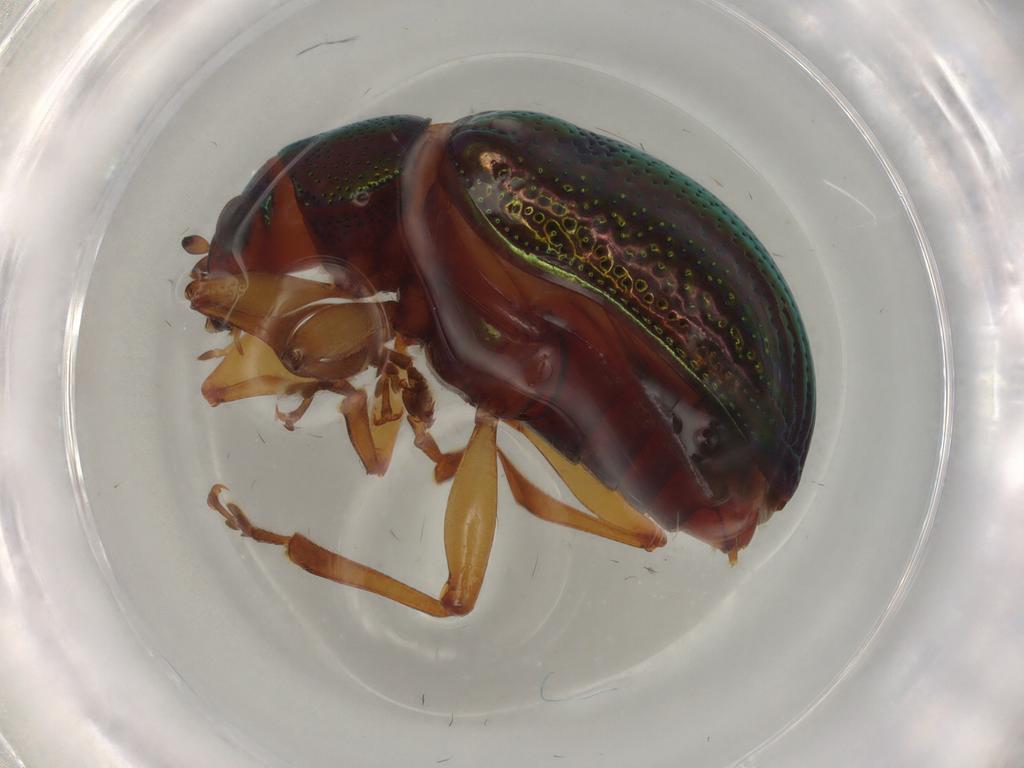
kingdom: Animalia
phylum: Arthropoda
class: Insecta
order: Coleoptera
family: Chrysomelidae
